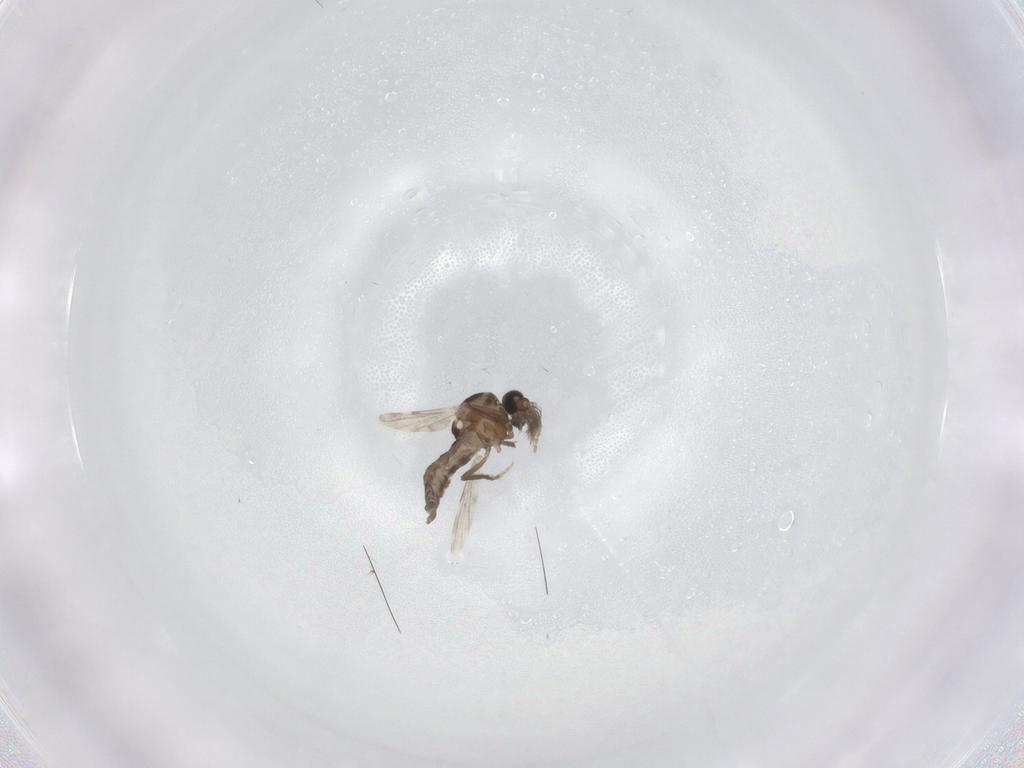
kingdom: Animalia
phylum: Arthropoda
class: Insecta
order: Diptera
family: Ceratopogonidae
